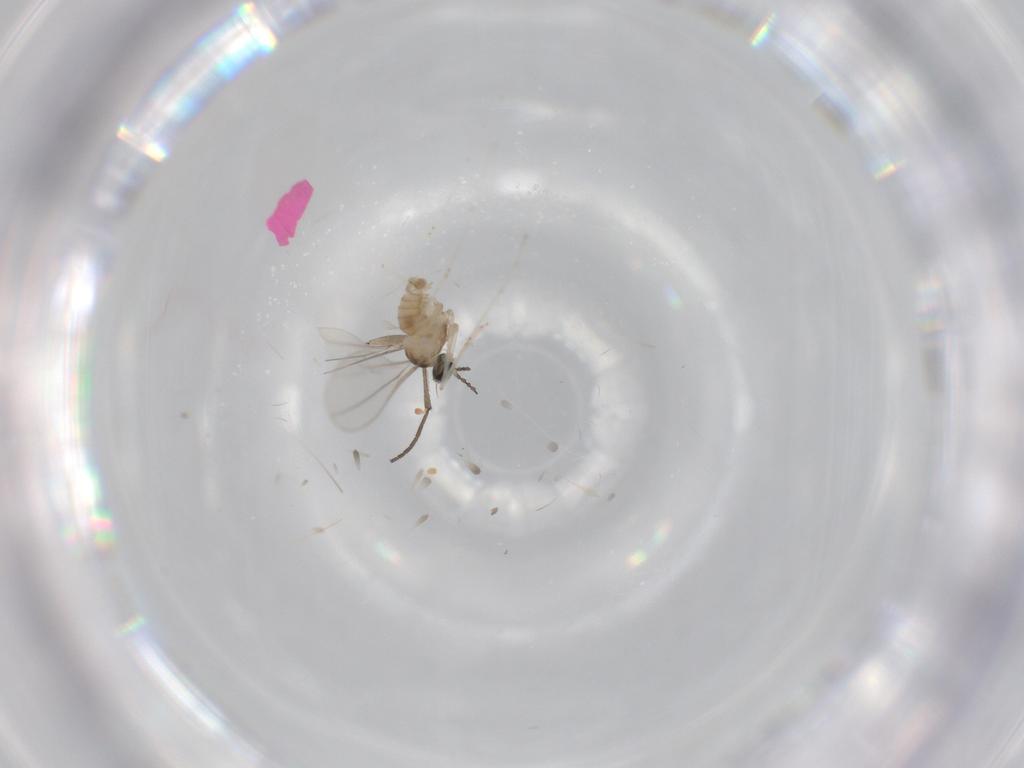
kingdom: Animalia
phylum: Arthropoda
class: Insecta
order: Diptera
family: Cecidomyiidae
